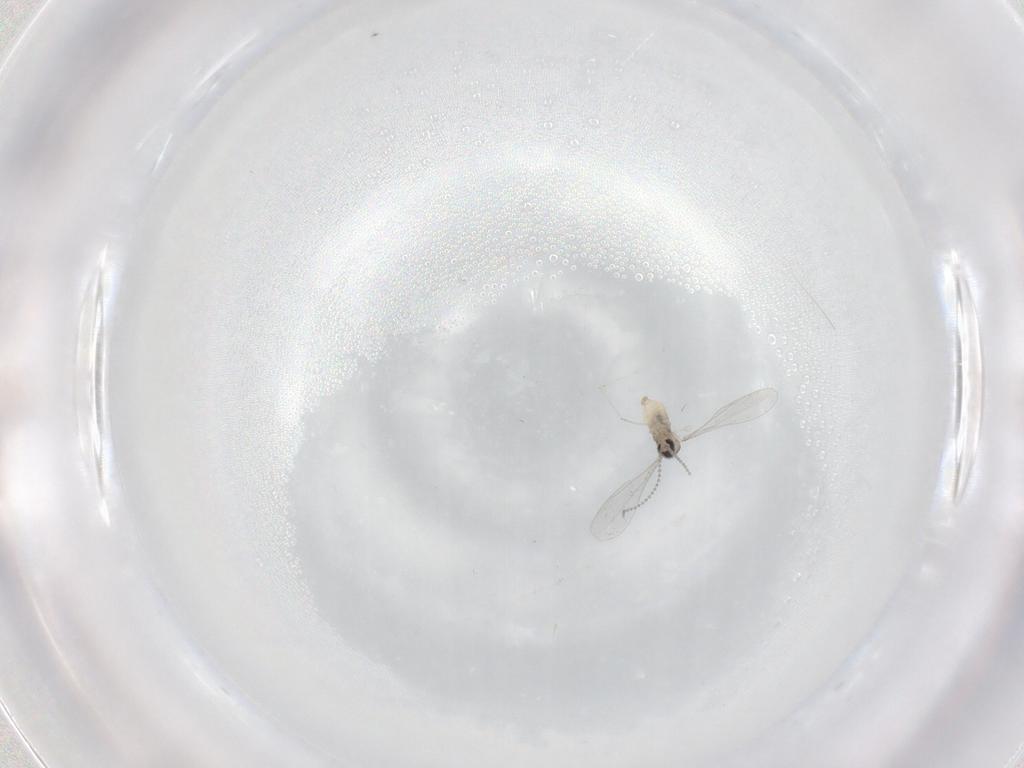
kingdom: Animalia
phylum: Arthropoda
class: Insecta
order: Diptera
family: Cecidomyiidae
